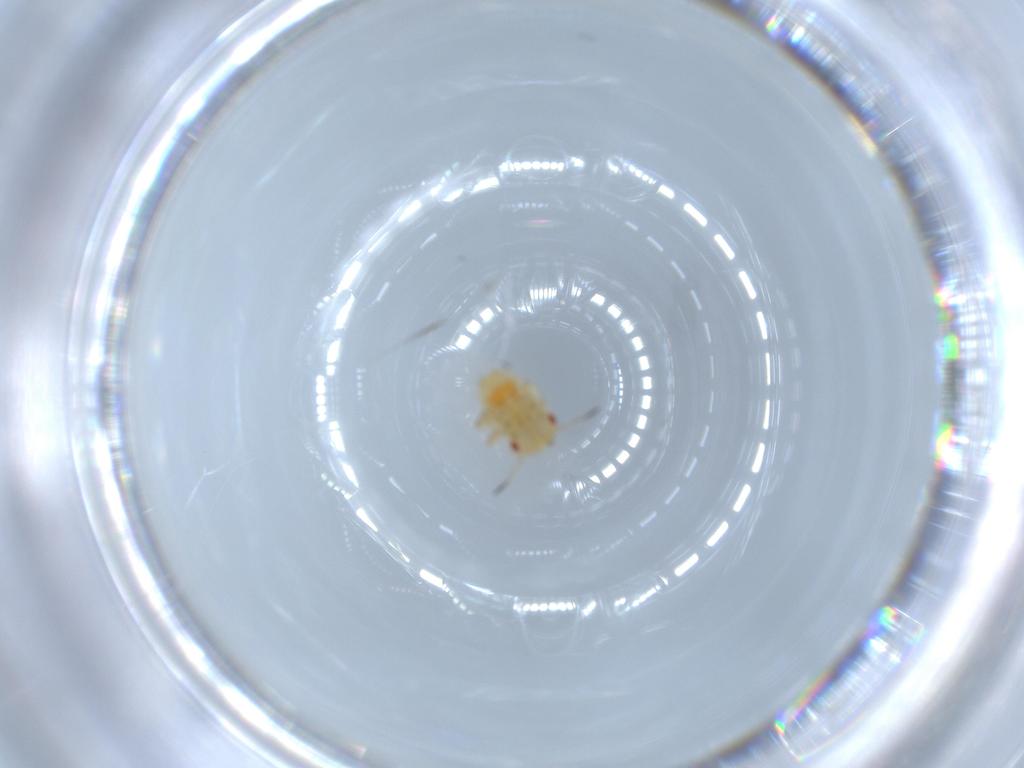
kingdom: Animalia
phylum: Arthropoda
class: Insecta
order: Hemiptera
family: Psyllidae
